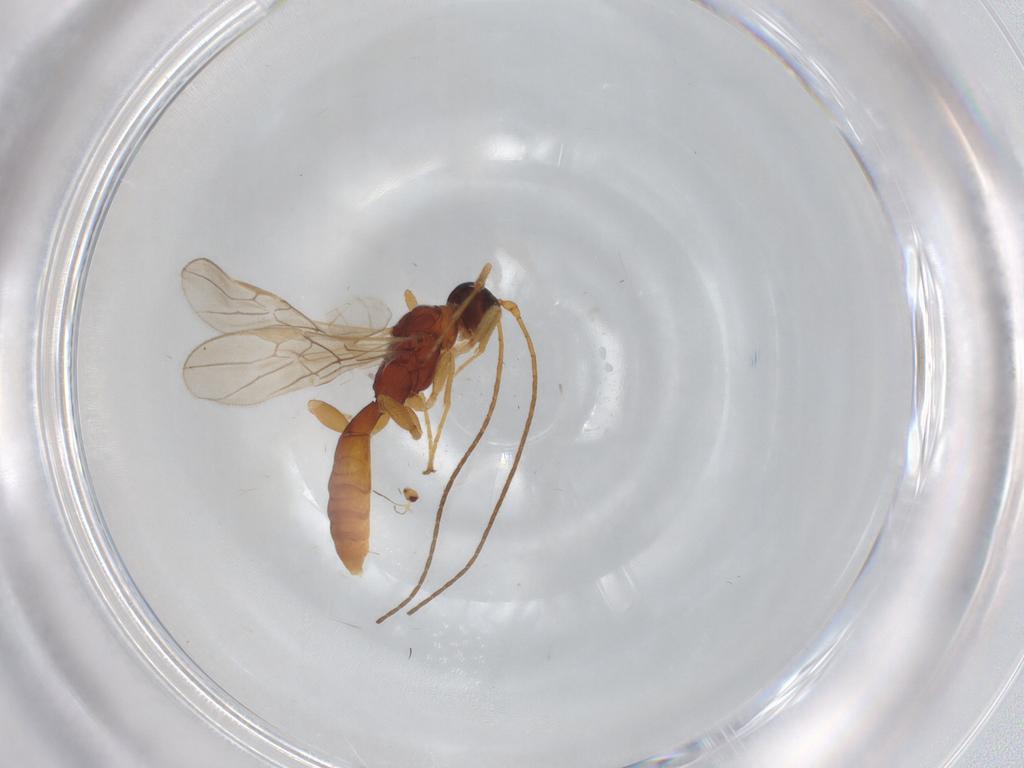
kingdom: Animalia
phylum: Arthropoda
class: Insecta
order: Hymenoptera
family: Braconidae
